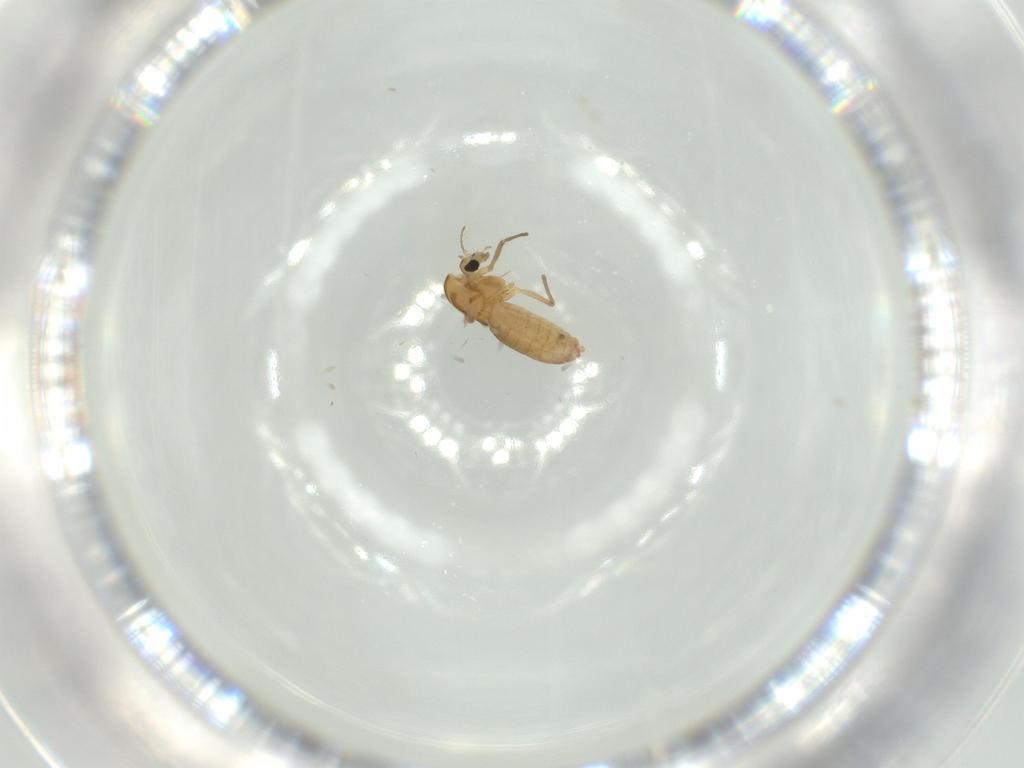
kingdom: Animalia
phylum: Arthropoda
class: Insecta
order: Diptera
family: Chironomidae
